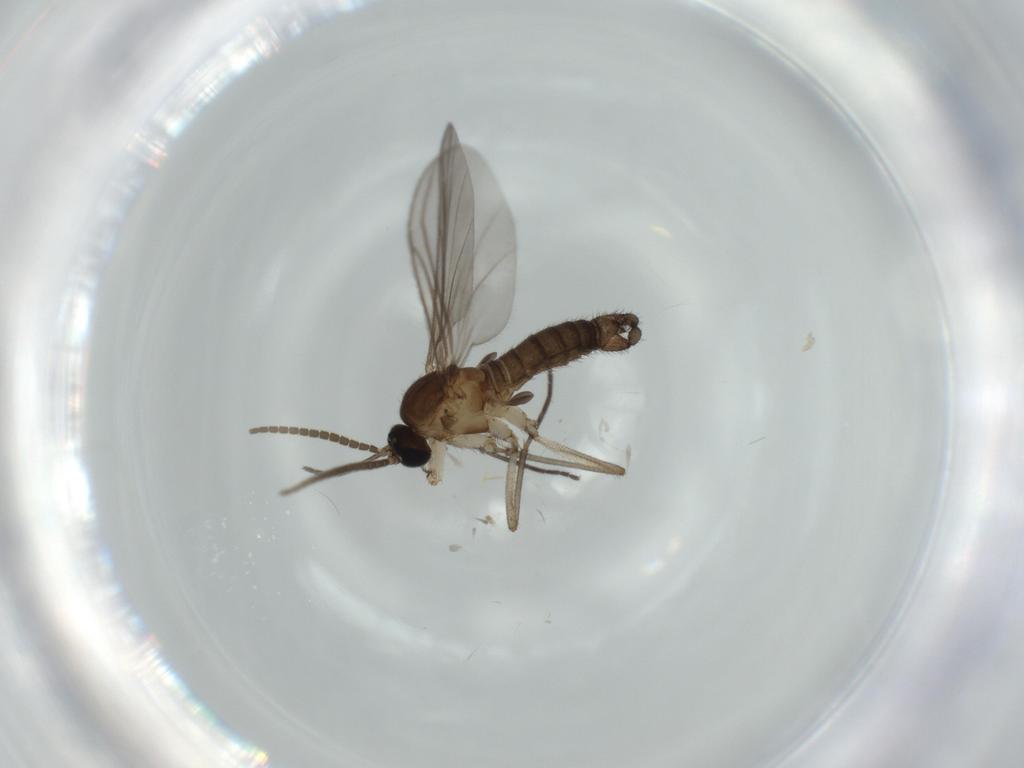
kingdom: Animalia
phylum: Arthropoda
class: Insecta
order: Diptera
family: Sciaridae
